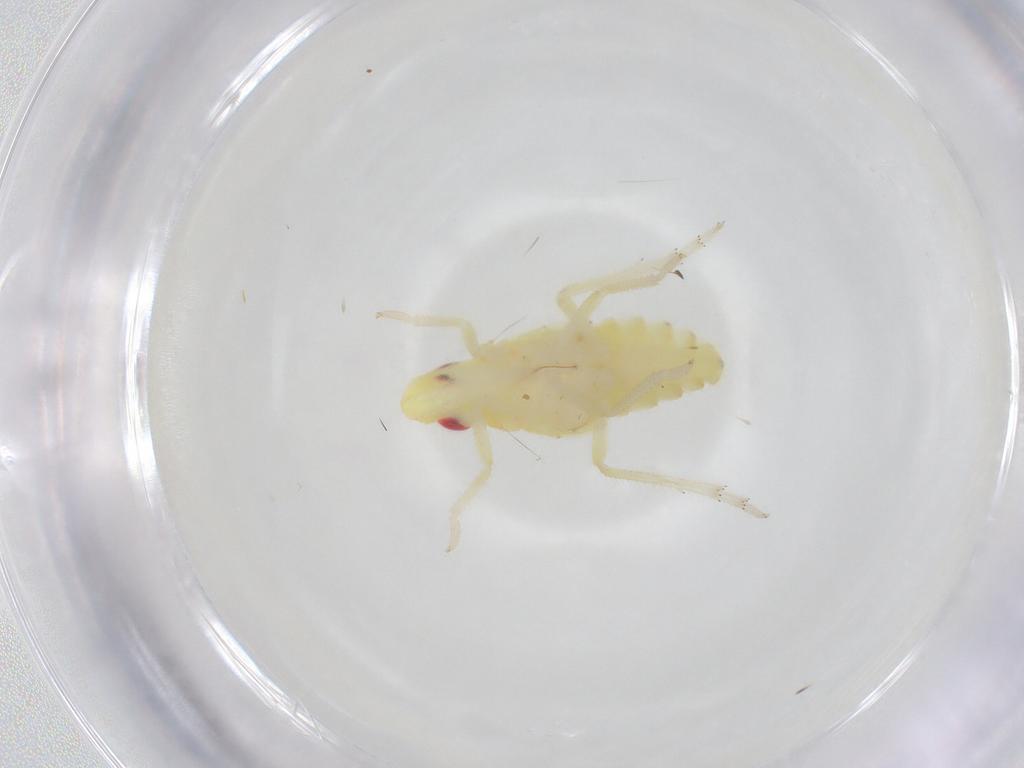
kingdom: Animalia
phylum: Arthropoda
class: Insecta
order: Hemiptera
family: Tropiduchidae
